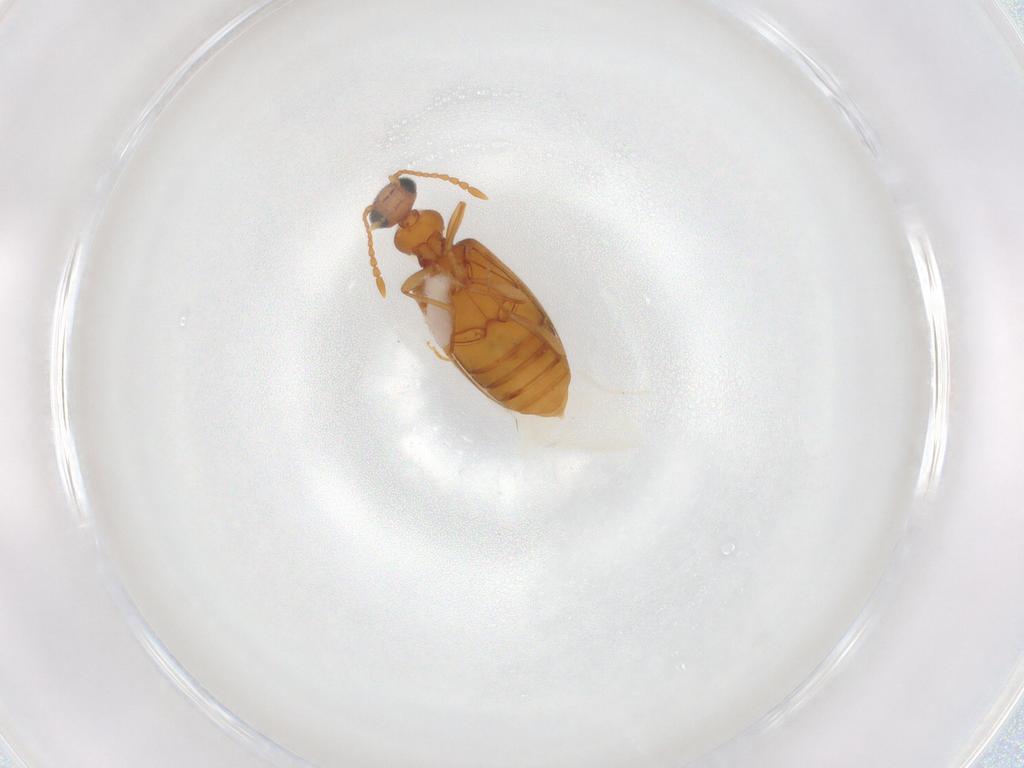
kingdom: Animalia
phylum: Arthropoda
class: Insecta
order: Coleoptera
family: Anthicidae
